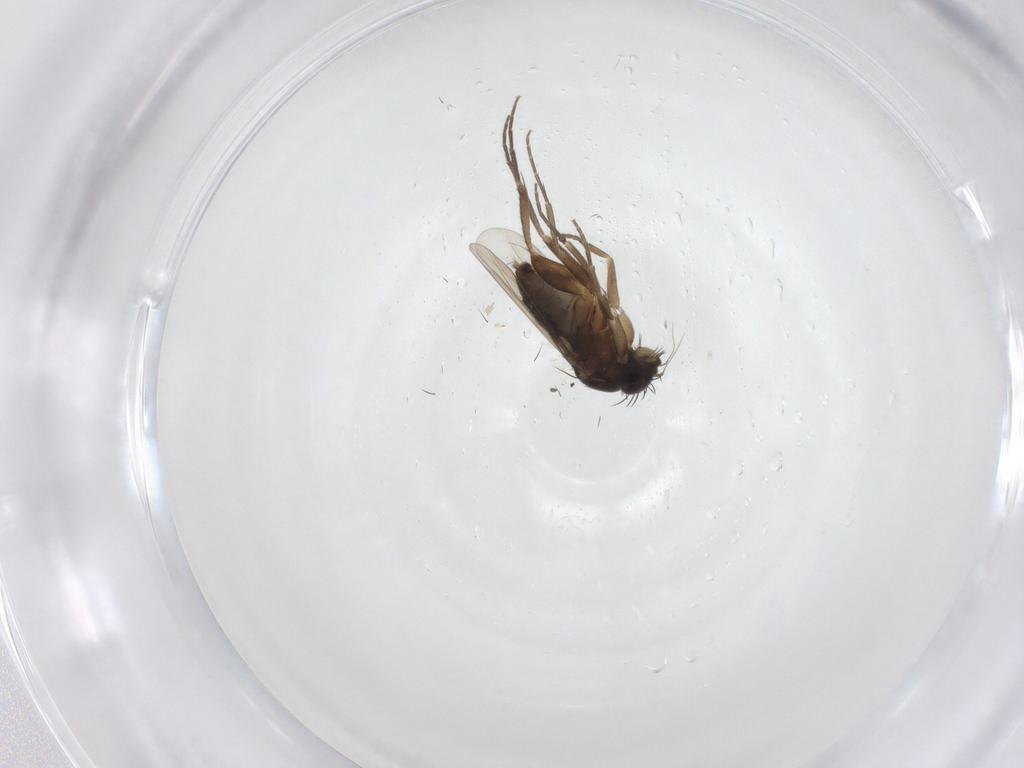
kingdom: Animalia
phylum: Arthropoda
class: Insecta
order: Diptera
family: Phoridae
